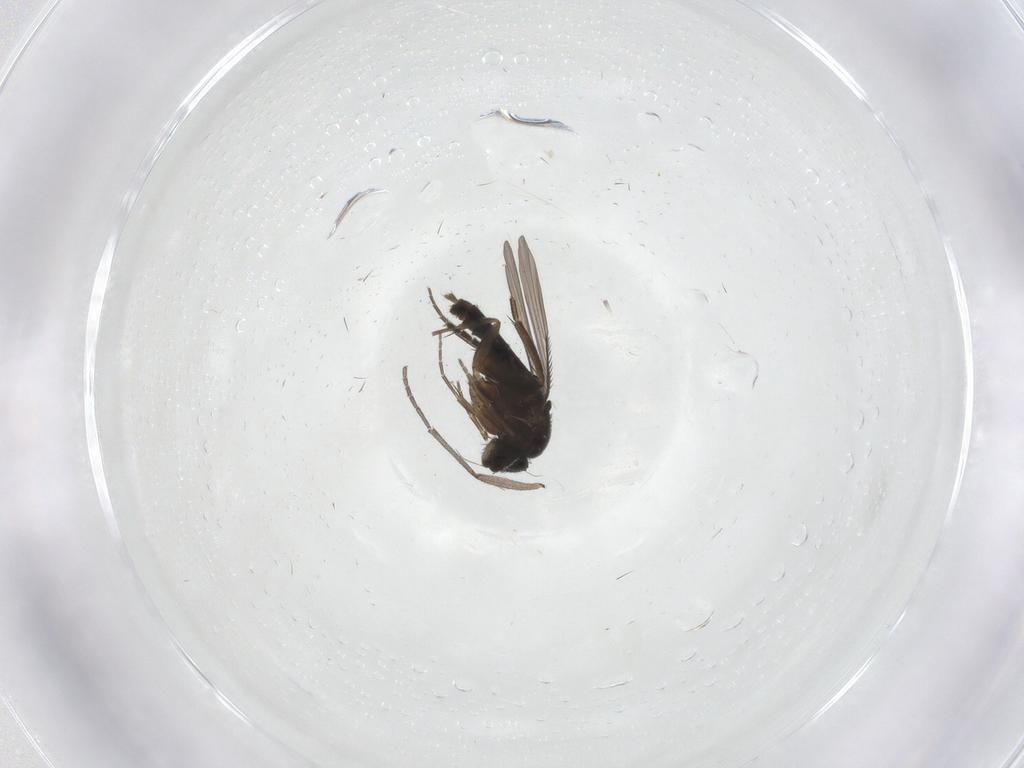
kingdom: Animalia
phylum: Arthropoda
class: Insecta
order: Diptera
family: Phoridae
